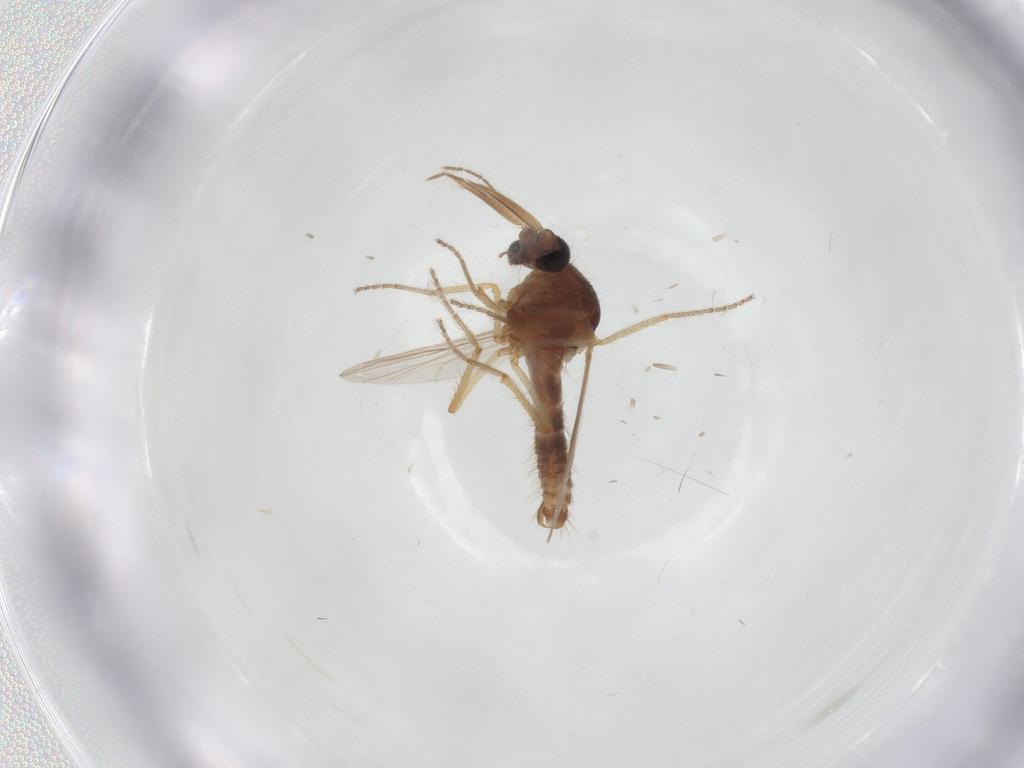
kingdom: Animalia
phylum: Arthropoda
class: Insecta
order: Diptera
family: Ceratopogonidae
